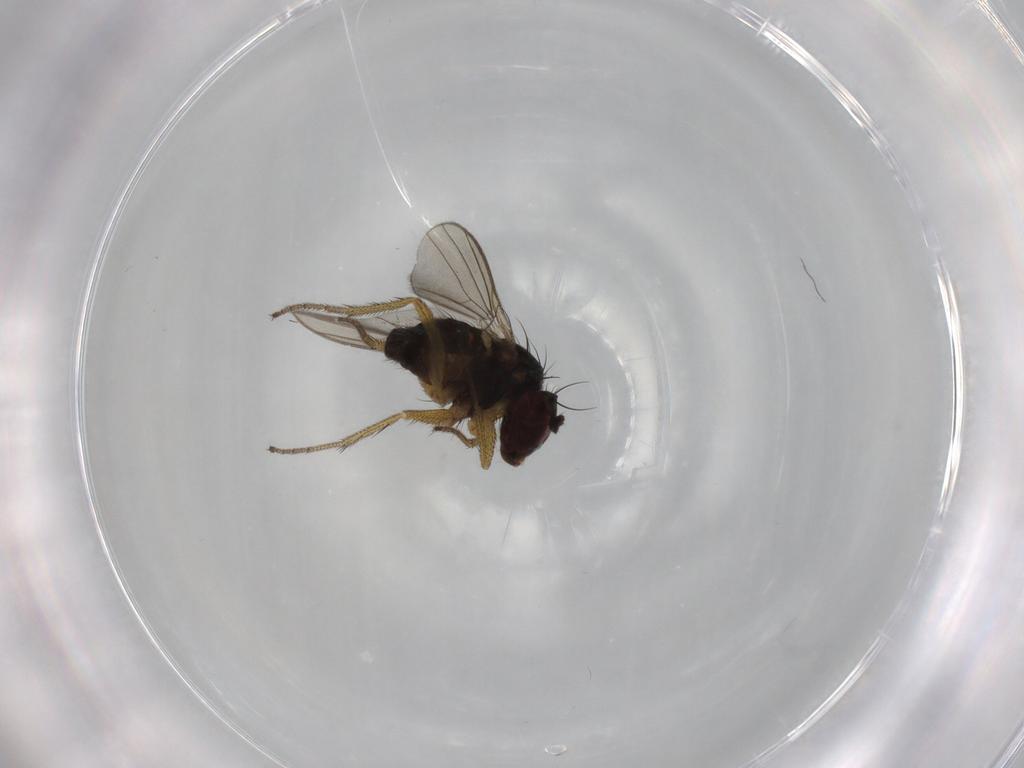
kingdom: Animalia
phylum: Arthropoda
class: Insecta
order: Diptera
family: Dolichopodidae
